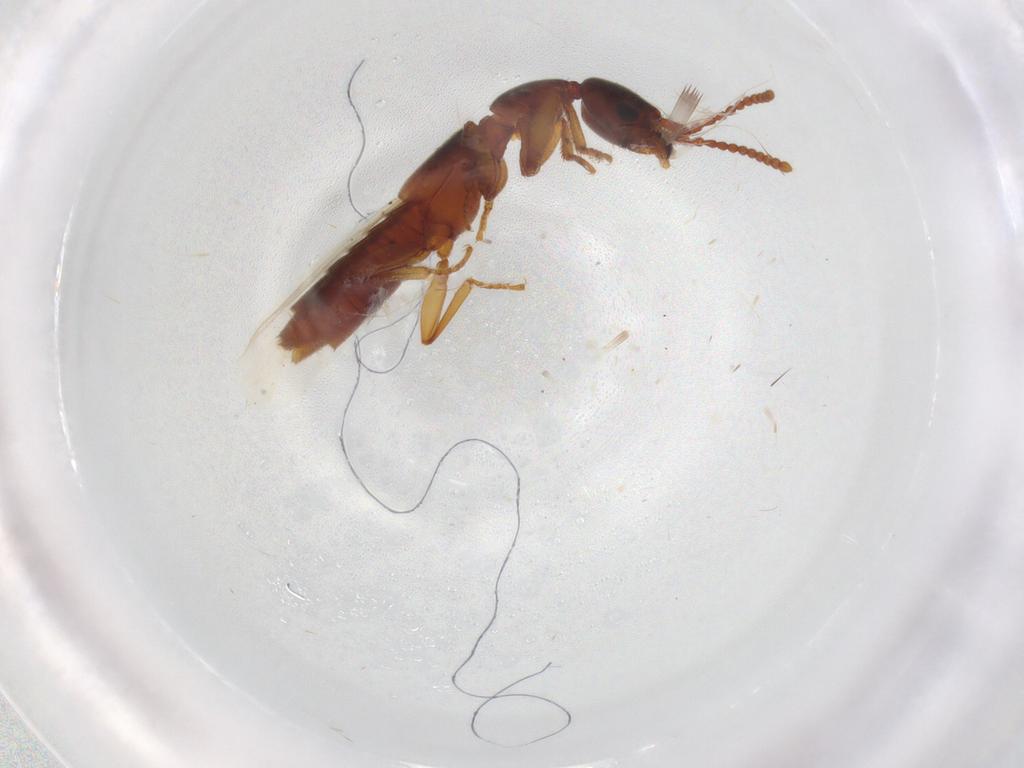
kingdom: Animalia
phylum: Arthropoda
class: Insecta
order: Coleoptera
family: Staphylinidae
